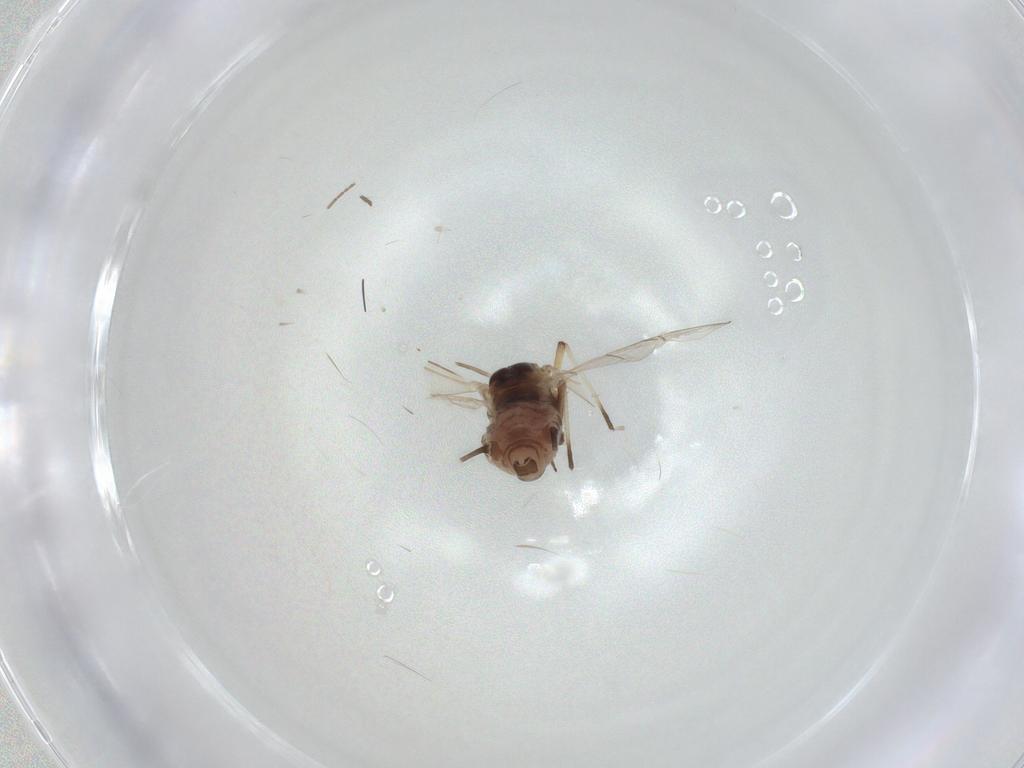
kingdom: Animalia
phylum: Arthropoda
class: Insecta
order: Hemiptera
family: Aphididae
